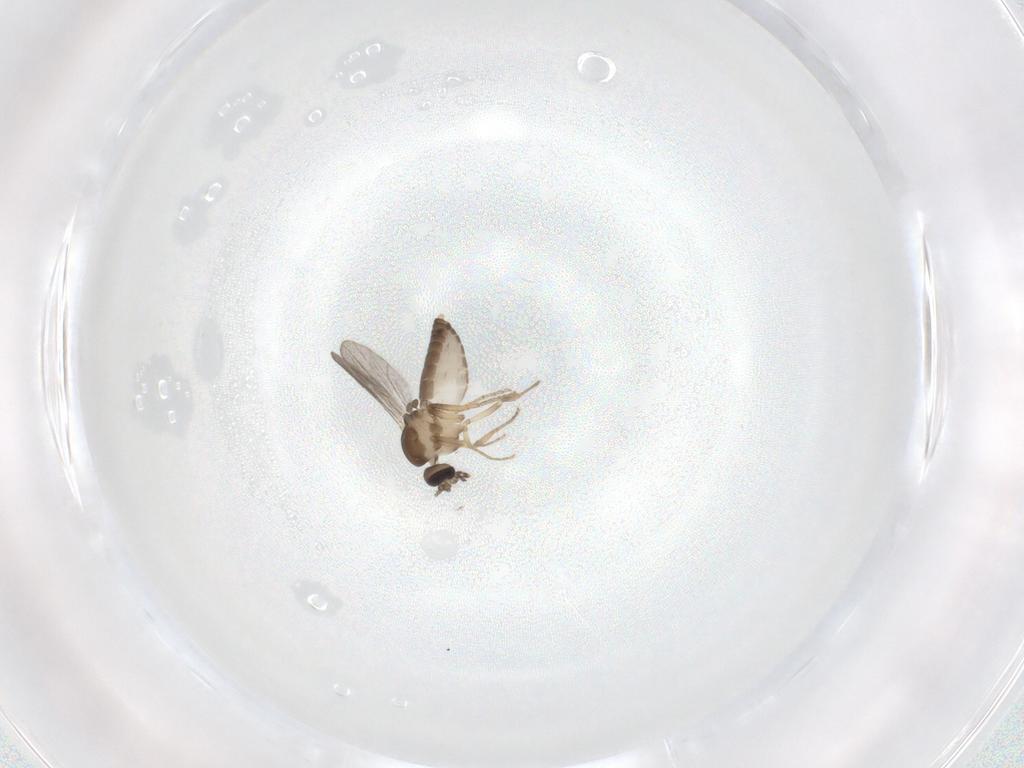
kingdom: Animalia
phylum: Arthropoda
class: Insecta
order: Diptera
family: Ceratopogonidae
